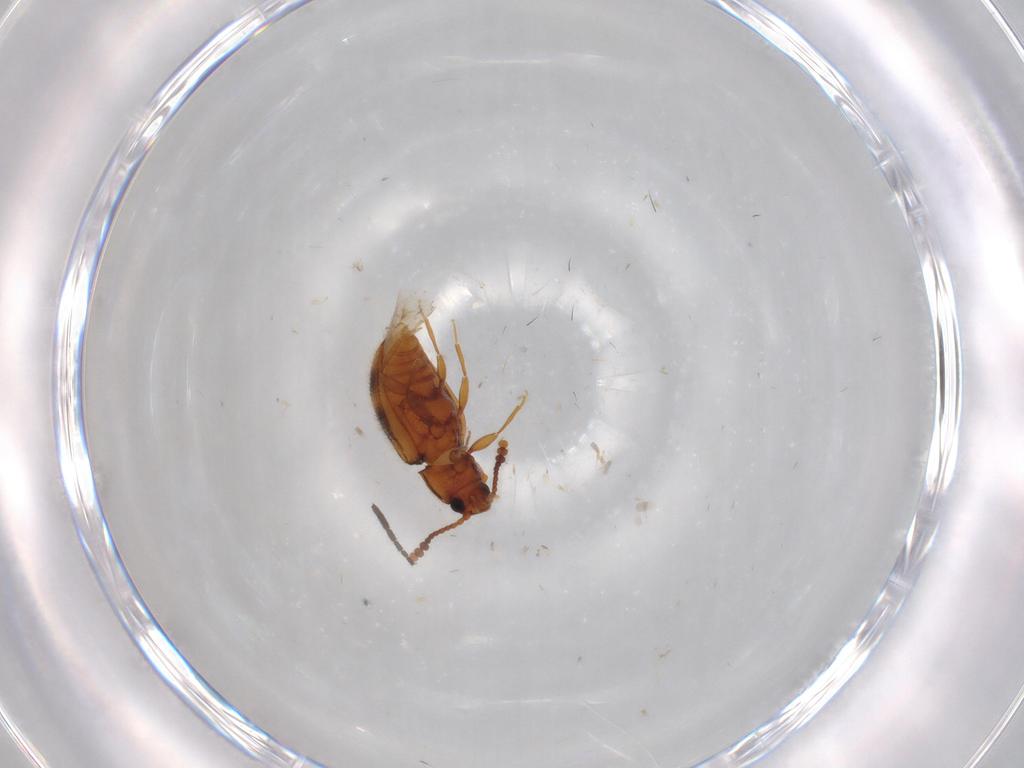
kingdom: Animalia
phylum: Arthropoda
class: Insecta
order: Coleoptera
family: Erotylidae
